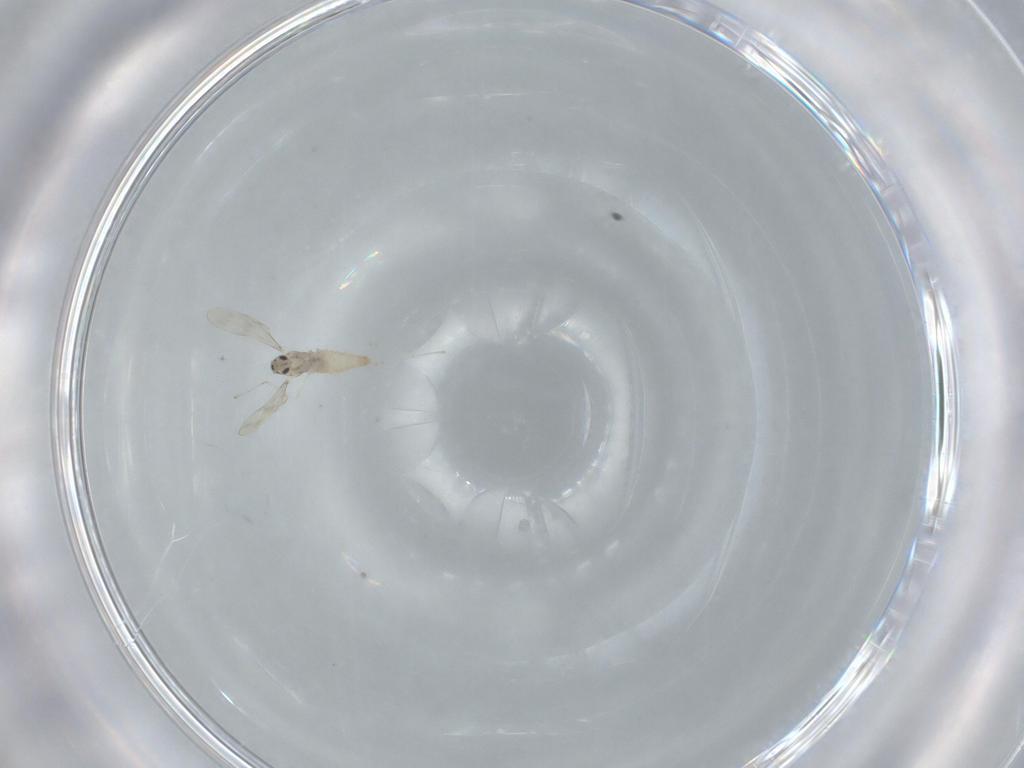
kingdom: Animalia
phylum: Arthropoda
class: Insecta
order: Diptera
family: Cecidomyiidae
